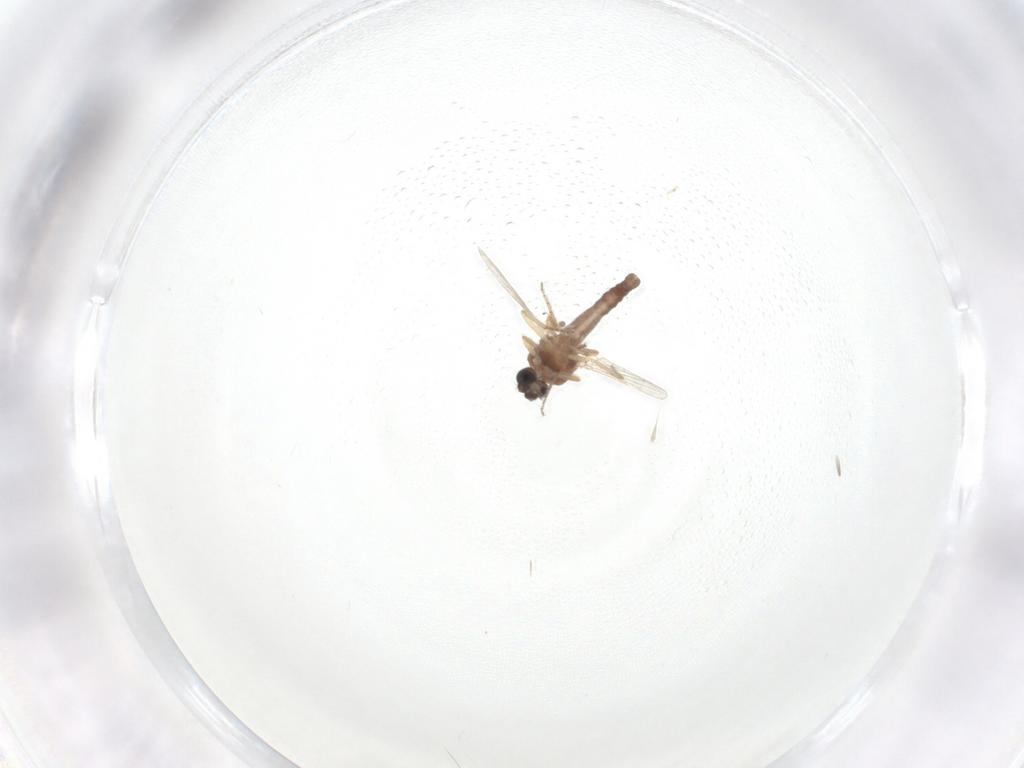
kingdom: Animalia
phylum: Arthropoda
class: Insecta
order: Diptera
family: Ceratopogonidae
